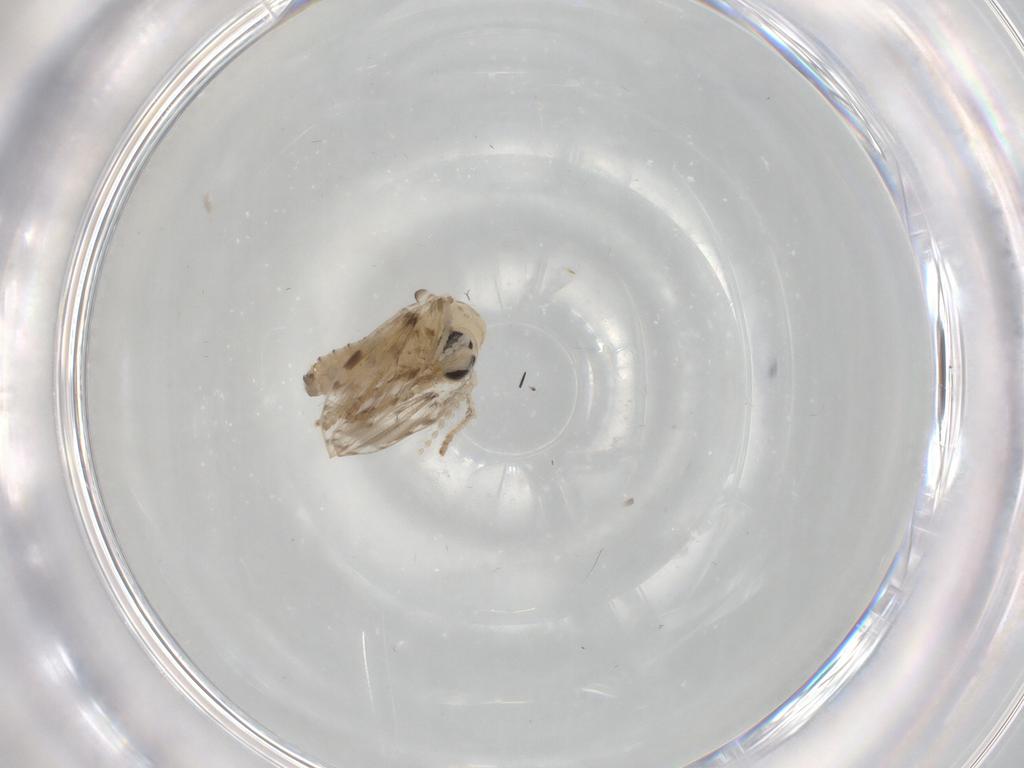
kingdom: Animalia
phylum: Arthropoda
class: Insecta
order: Diptera
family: Psychodidae
